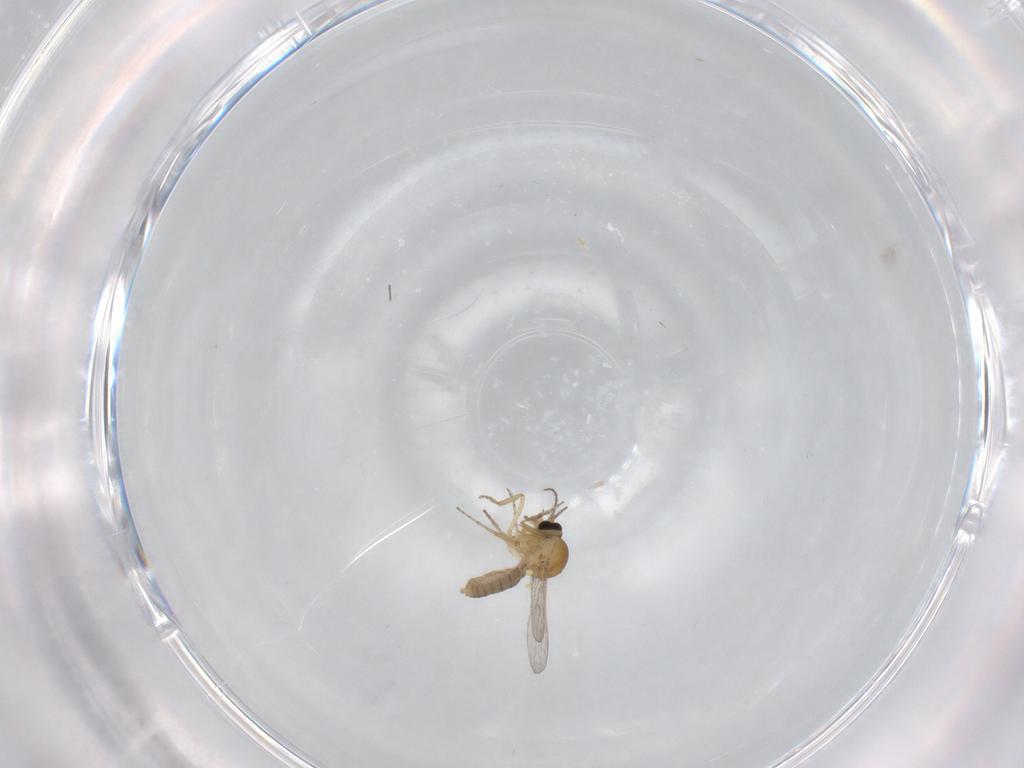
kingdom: Animalia
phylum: Arthropoda
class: Insecta
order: Diptera
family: Ceratopogonidae
